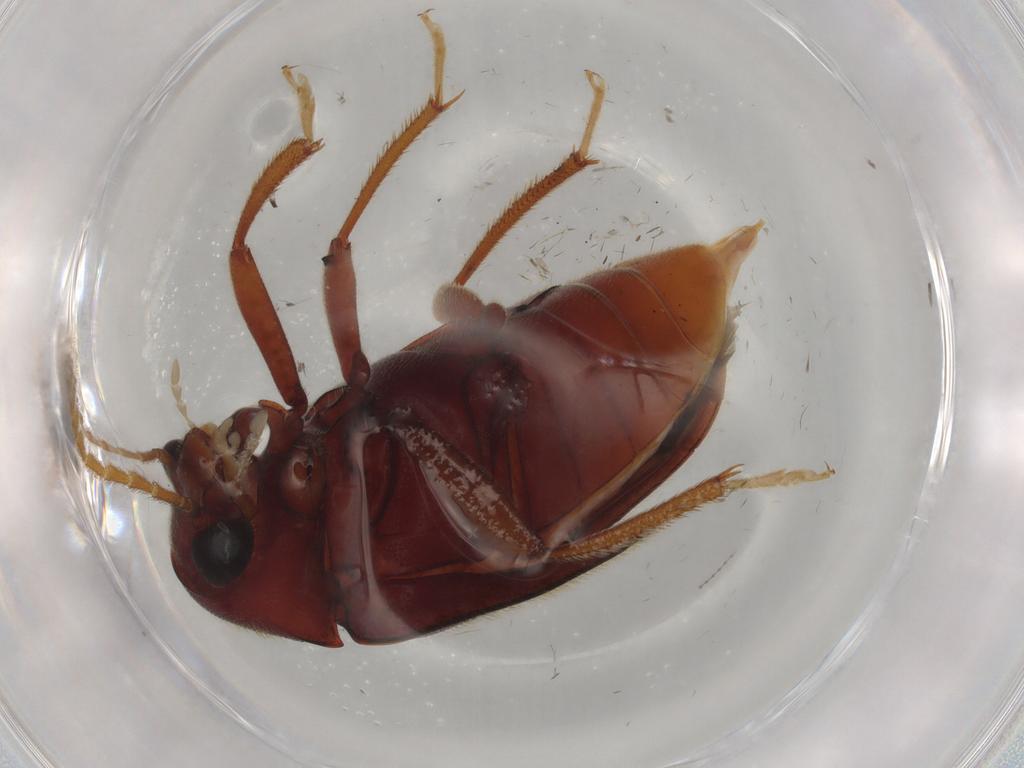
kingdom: Animalia
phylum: Arthropoda
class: Insecta
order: Coleoptera
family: Ptilodactylidae
